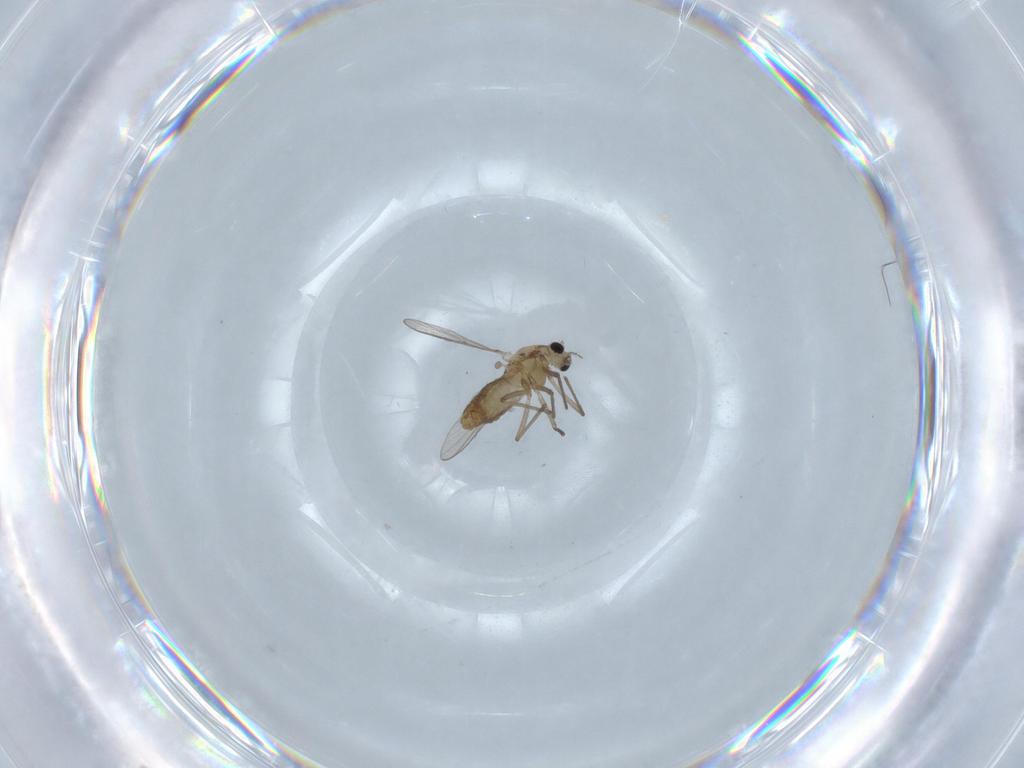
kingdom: Animalia
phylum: Arthropoda
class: Insecta
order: Diptera
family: Chironomidae
